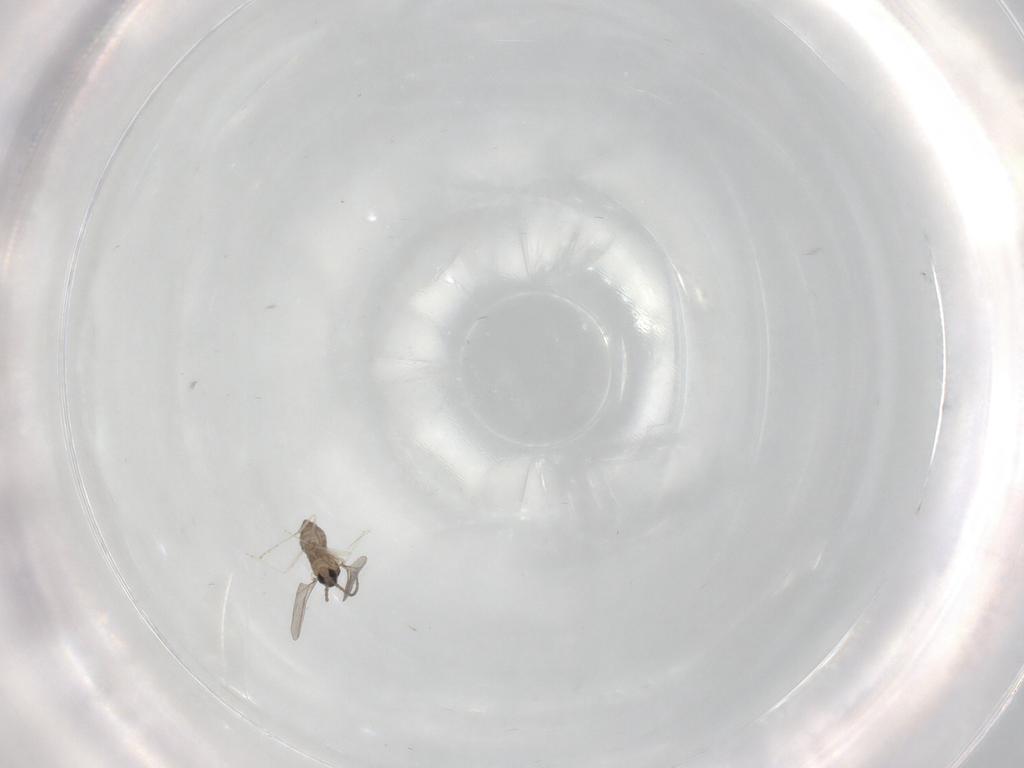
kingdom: Animalia
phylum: Arthropoda
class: Insecta
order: Diptera
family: Cecidomyiidae
